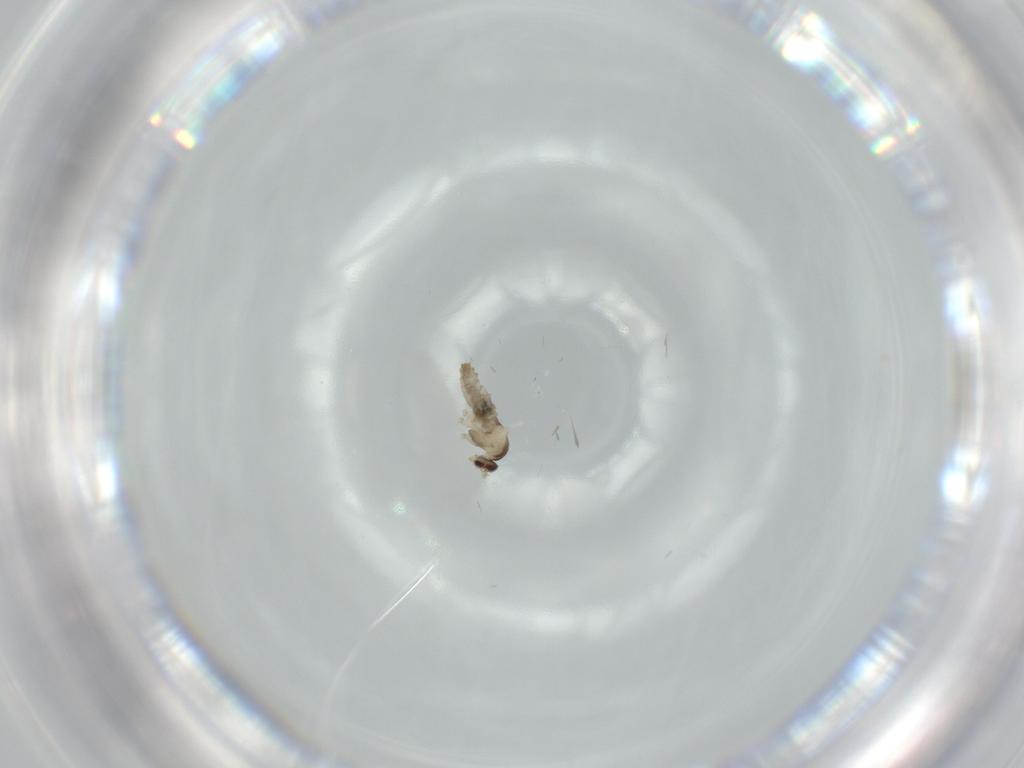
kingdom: Animalia
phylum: Arthropoda
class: Insecta
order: Diptera
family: Cecidomyiidae
